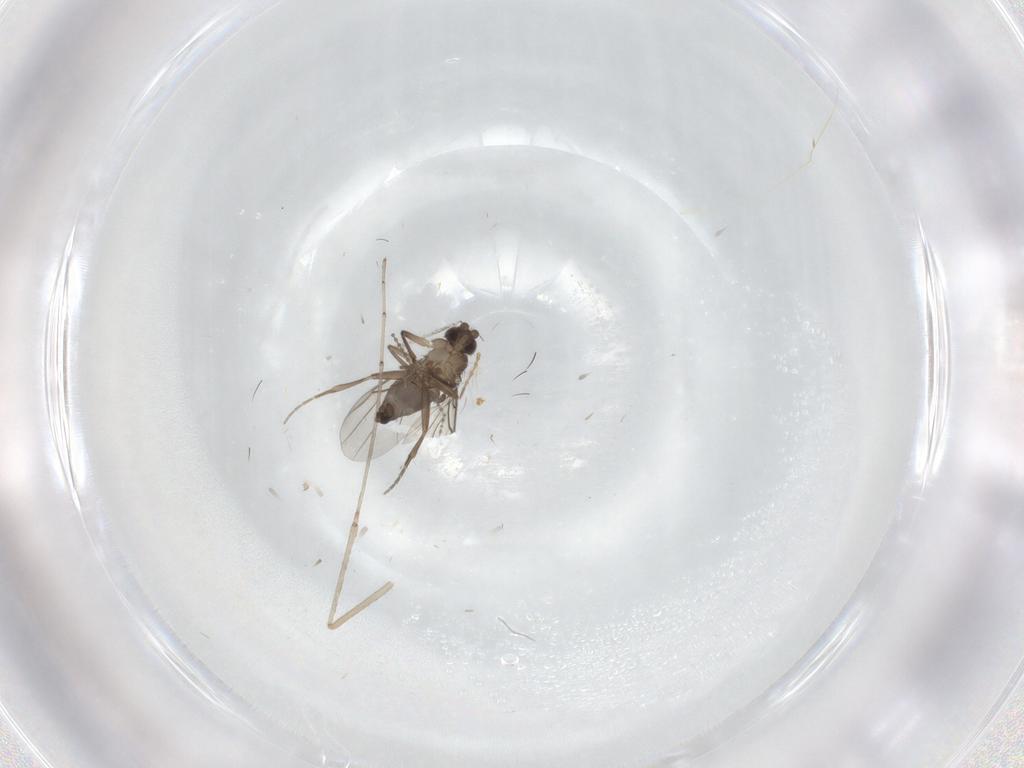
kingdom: Animalia
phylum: Arthropoda
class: Insecta
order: Diptera
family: Phoridae
